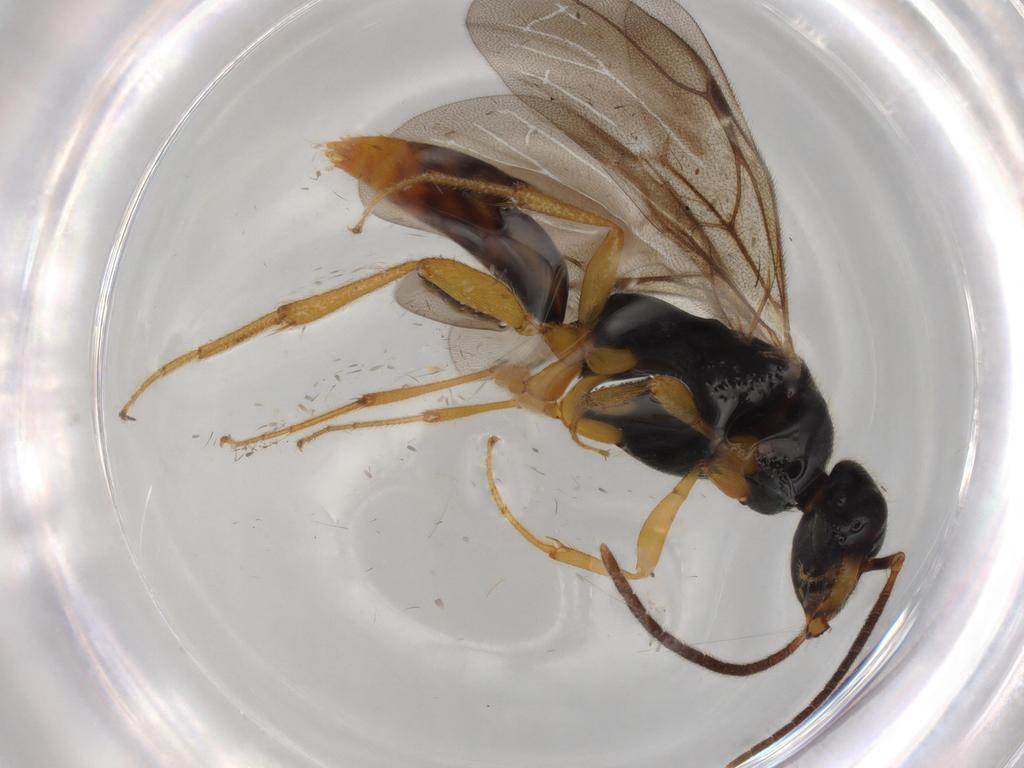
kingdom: Animalia
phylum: Arthropoda
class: Insecta
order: Hymenoptera
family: Bethylidae
